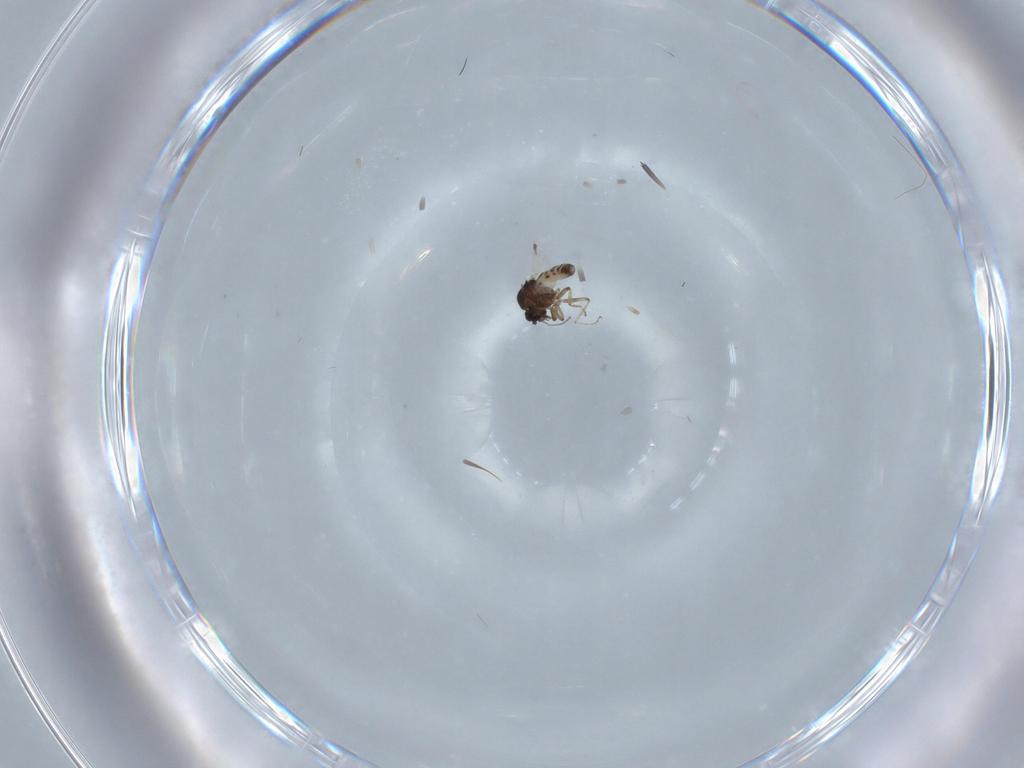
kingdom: Animalia
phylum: Arthropoda
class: Insecta
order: Diptera
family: Ceratopogonidae
